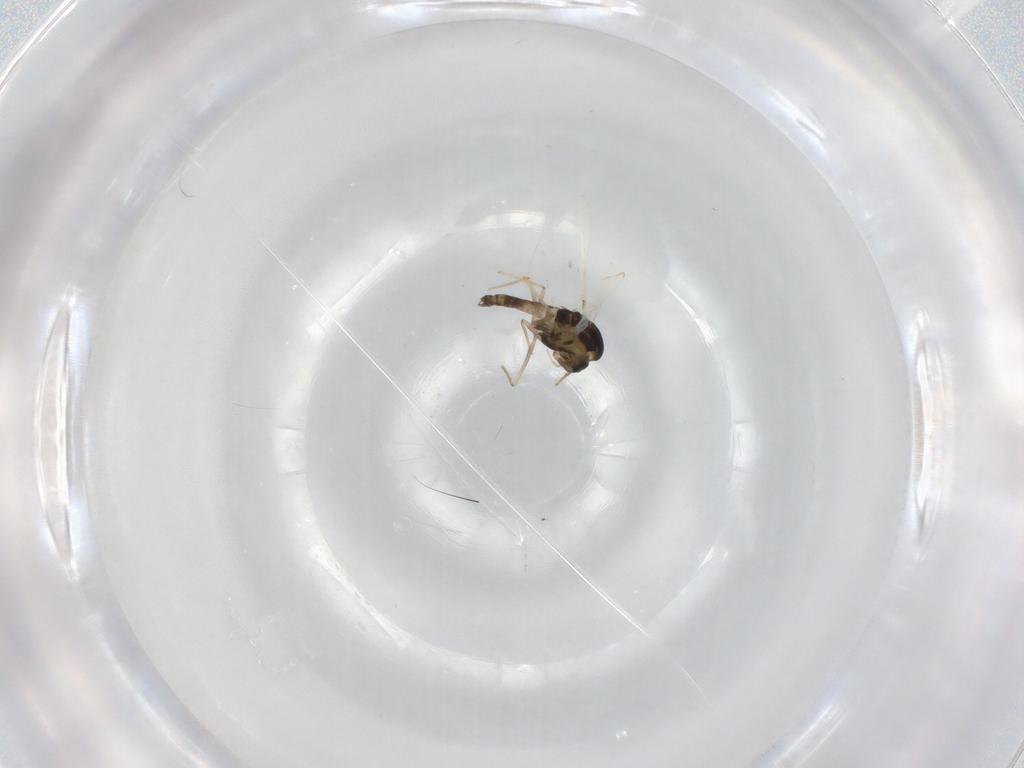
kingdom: Animalia
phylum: Arthropoda
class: Insecta
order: Diptera
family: Chironomidae
